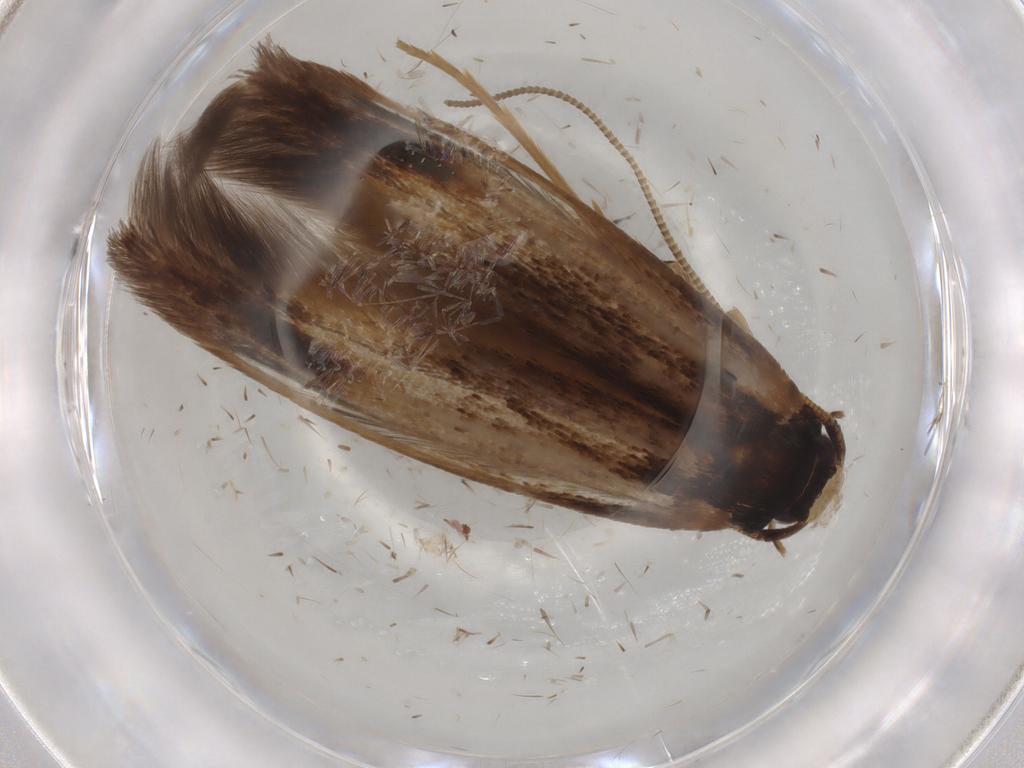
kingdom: Animalia
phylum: Arthropoda
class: Insecta
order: Lepidoptera
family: Tineidae
